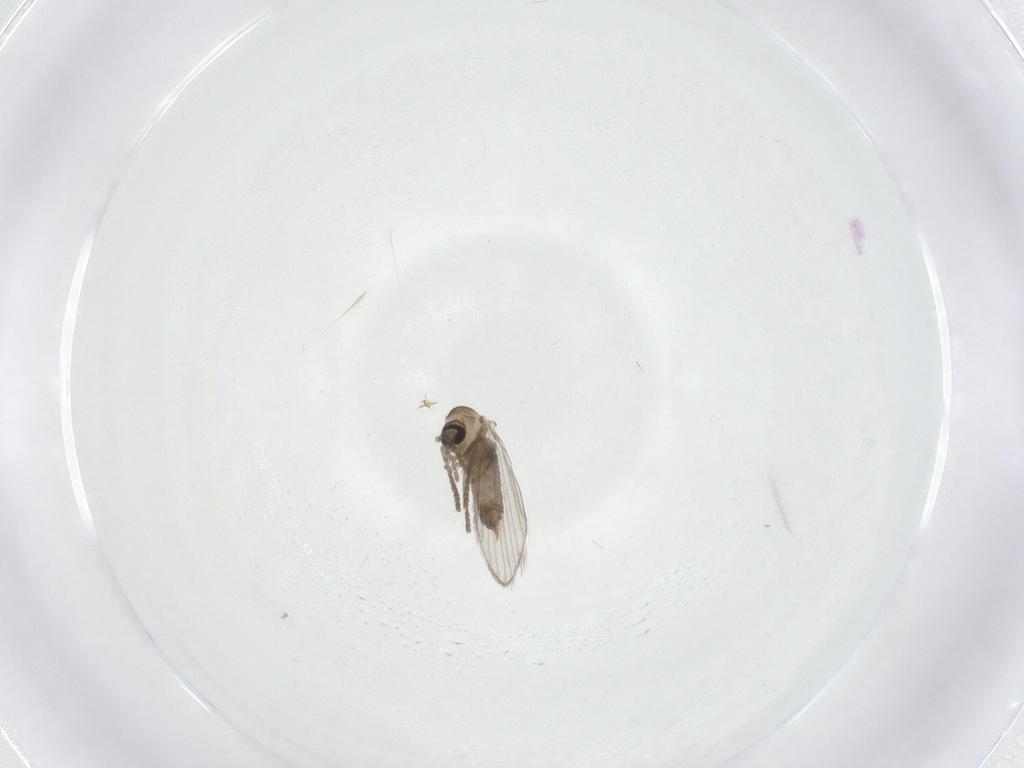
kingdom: Animalia
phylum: Arthropoda
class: Insecta
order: Diptera
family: Psychodidae
